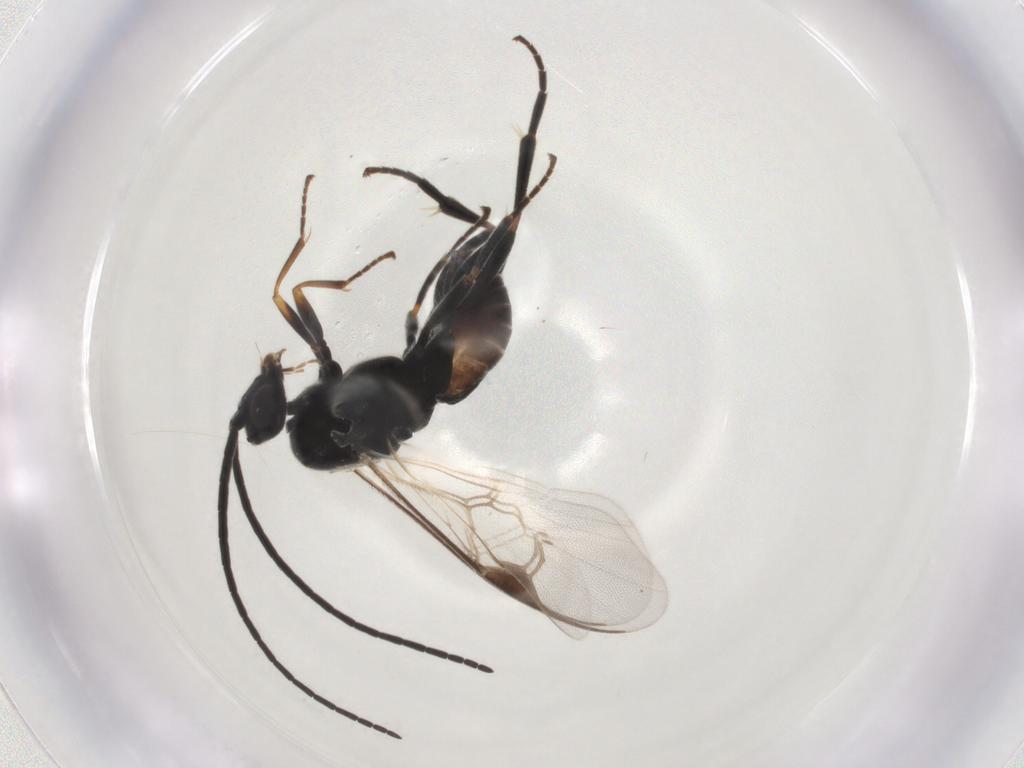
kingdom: Animalia
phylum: Arthropoda
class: Insecta
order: Hymenoptera
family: Braconidae
